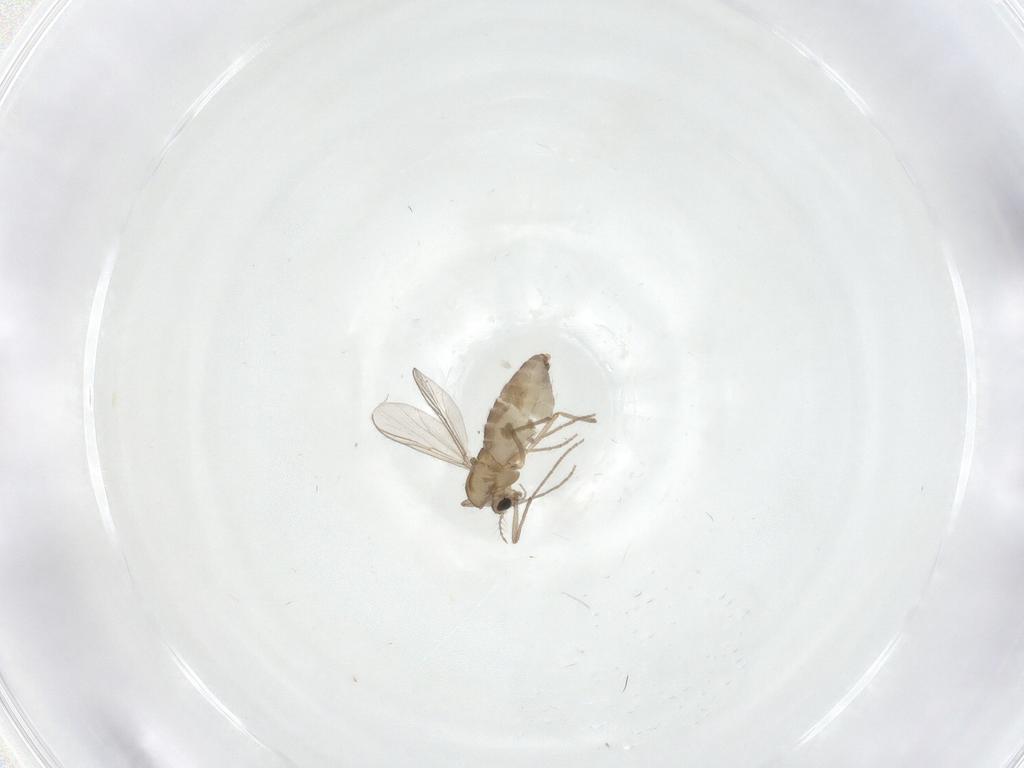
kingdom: Animalia
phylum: Arthropoda
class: Insecta
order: Diptera
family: Chironomidae
